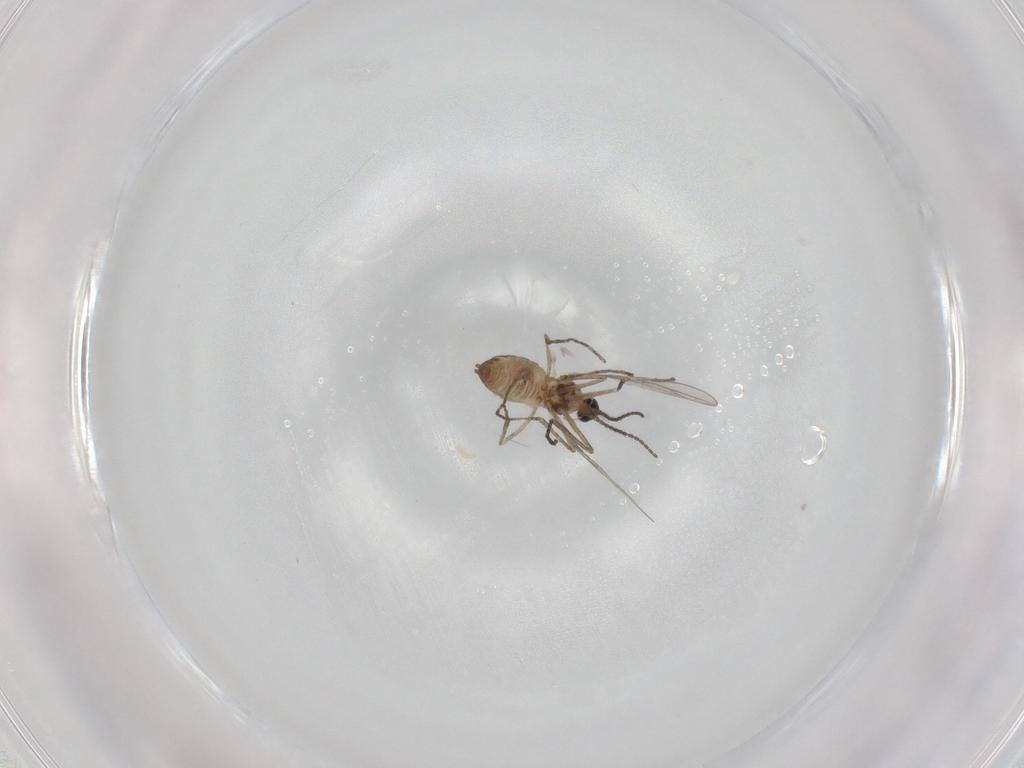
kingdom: Animalia
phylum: Arthropoda
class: Insecta
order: Diptera
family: Cecidomyiidae
